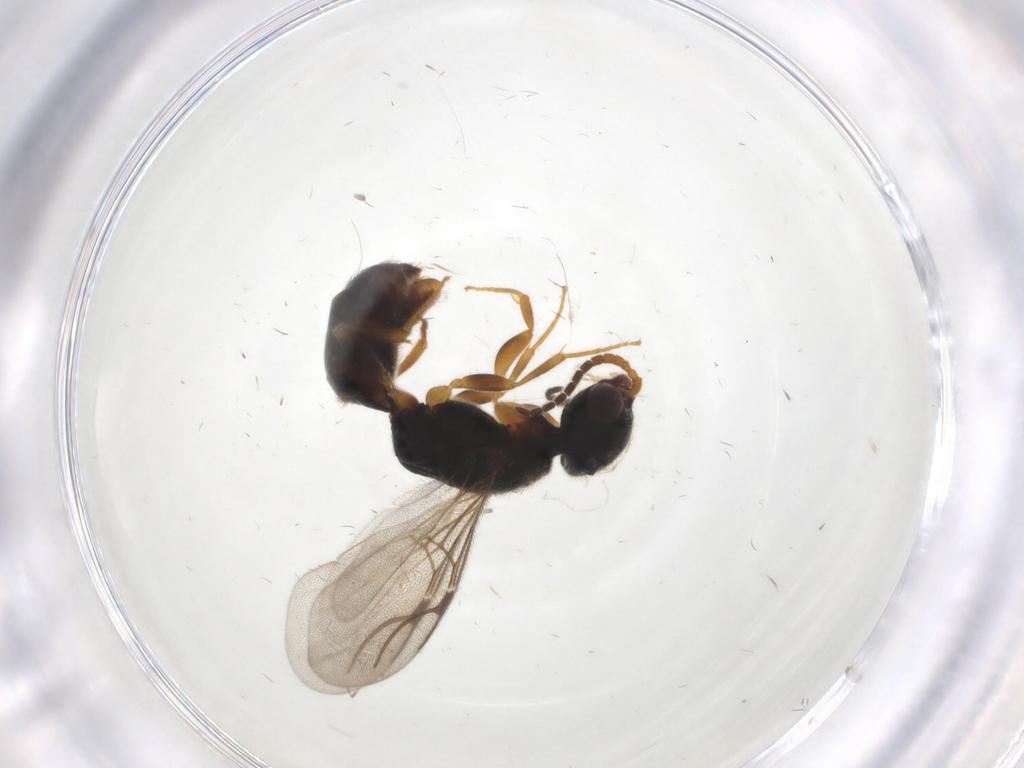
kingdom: Animalia
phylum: Arthropoda
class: Insecta
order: Hymenoptera
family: Bethylidae
